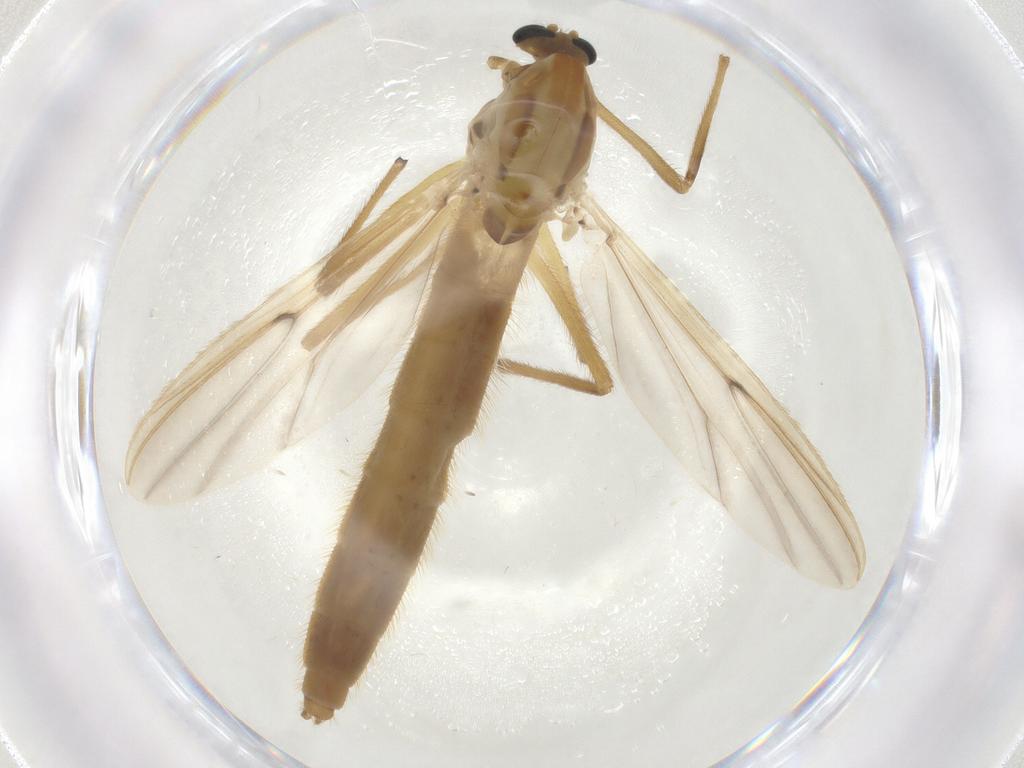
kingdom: Animalia
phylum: Arthropoda
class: Insecta
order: Diptera
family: Chironomidae
